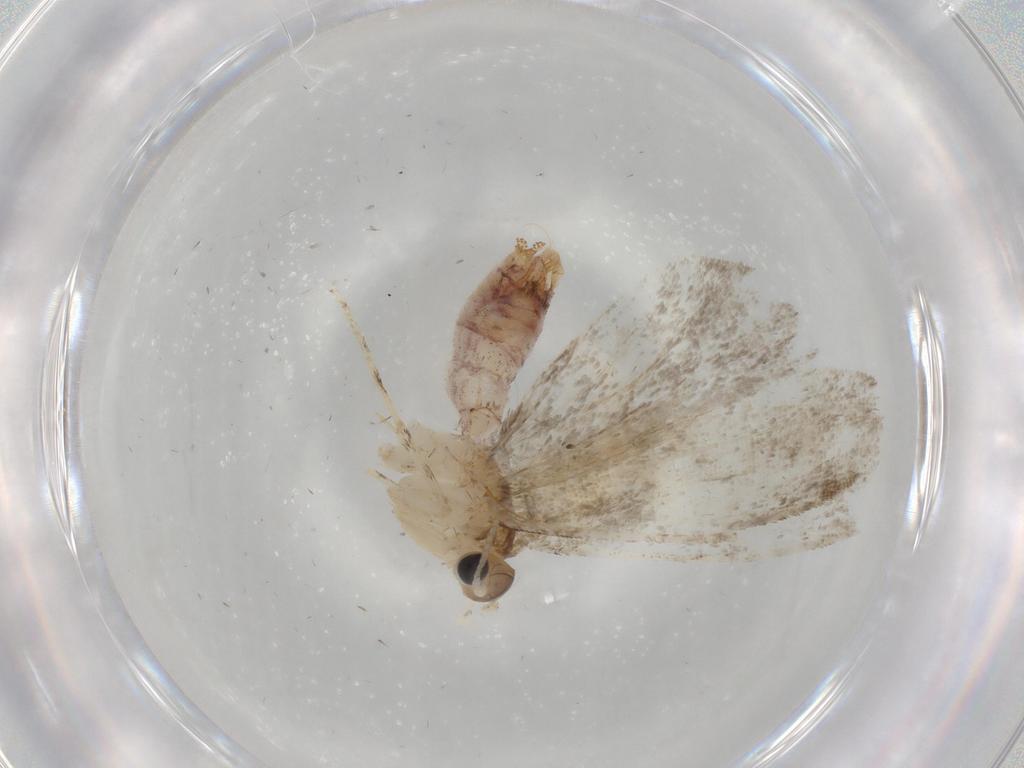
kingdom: Animalia
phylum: Arthropoda
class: Insecta
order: Lepidoptera
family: Tineidae
